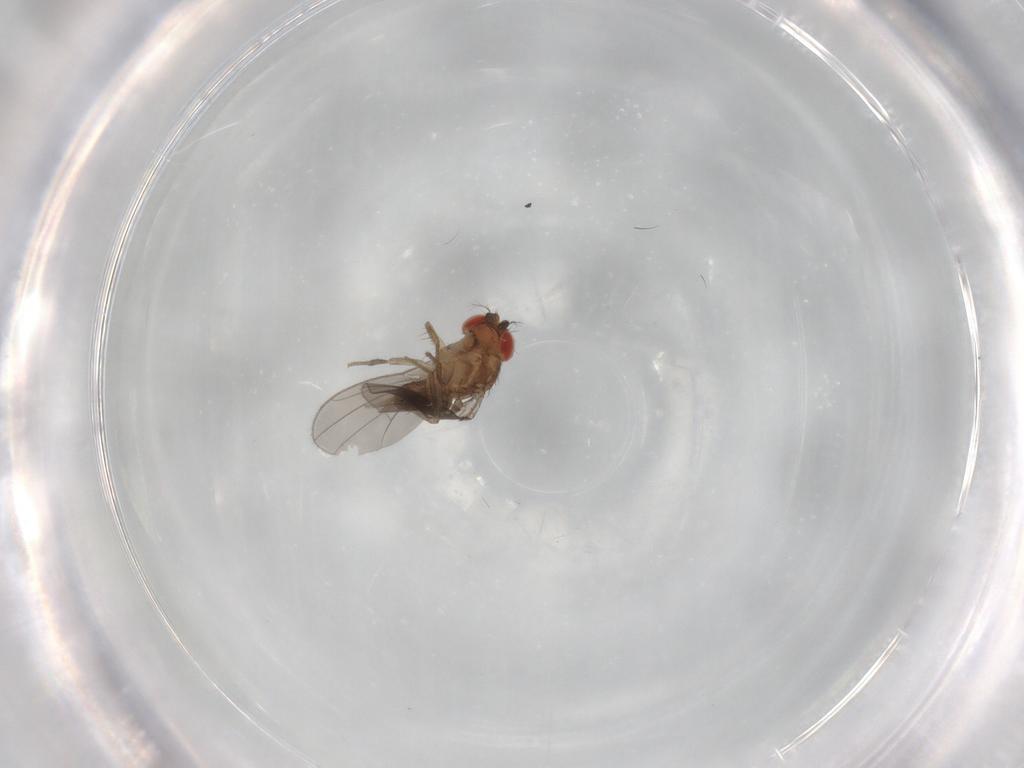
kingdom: Animalia
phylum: Arthropoda
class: Insecta
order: Diptera
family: Drosophilidae
